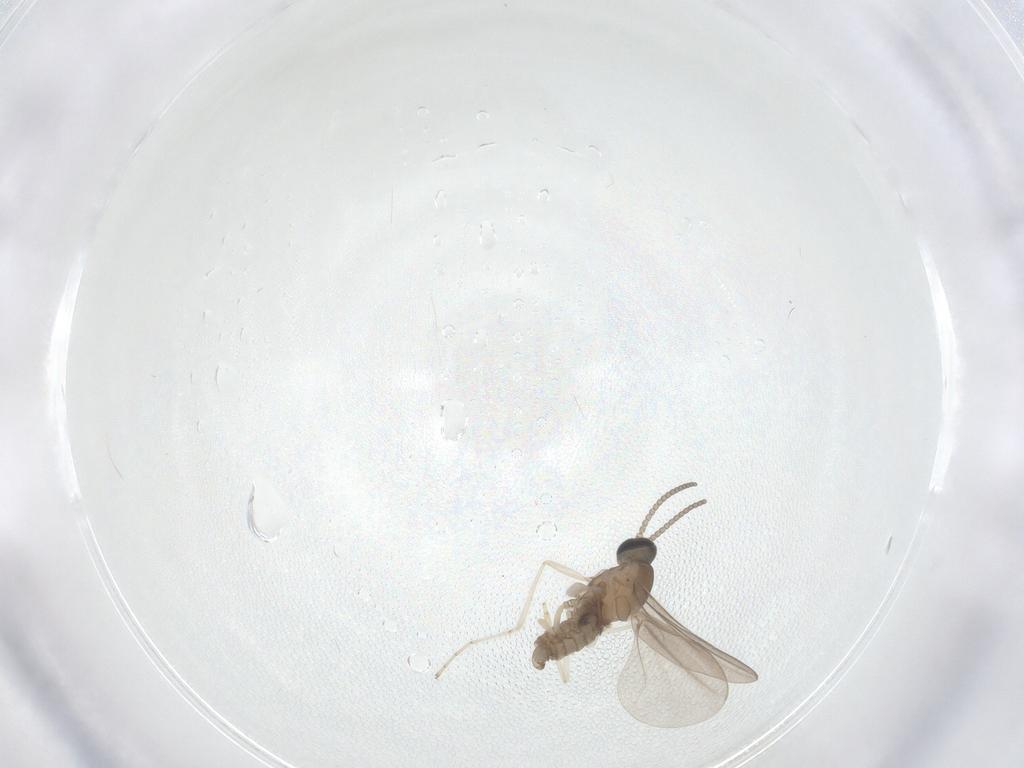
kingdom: Animalia
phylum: Arthropoda
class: Insecta
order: Diptera
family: Cecidomyiidae
